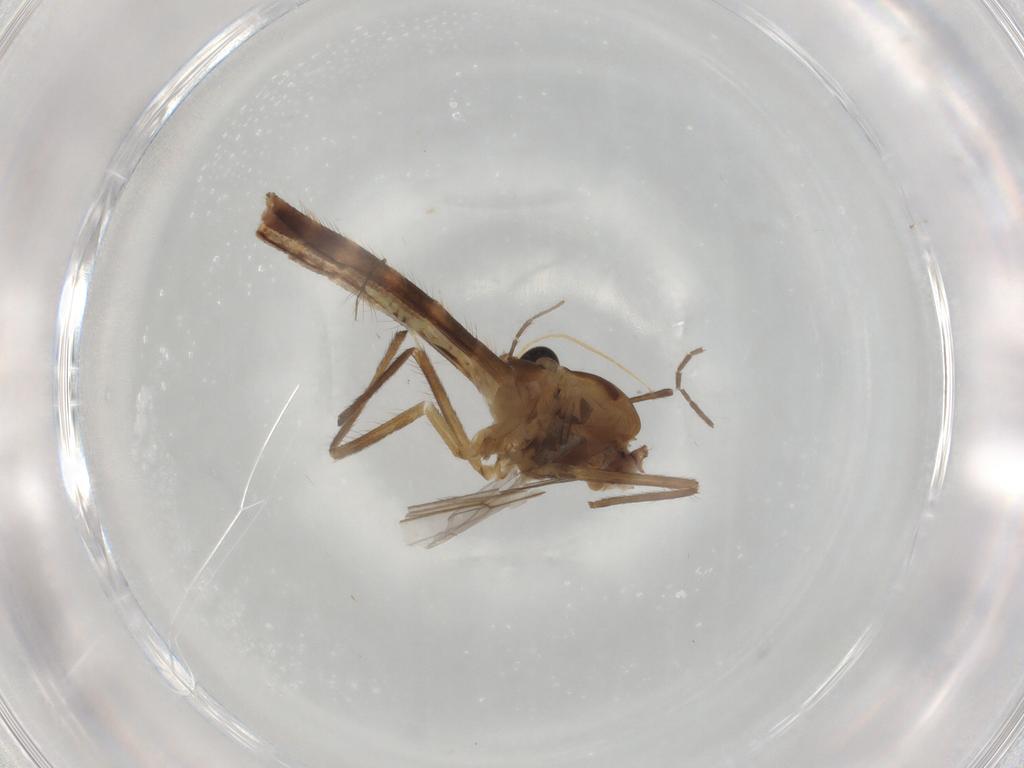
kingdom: Animalia
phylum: Arthropoda
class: Insecta
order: Diptera
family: Chironomidae
